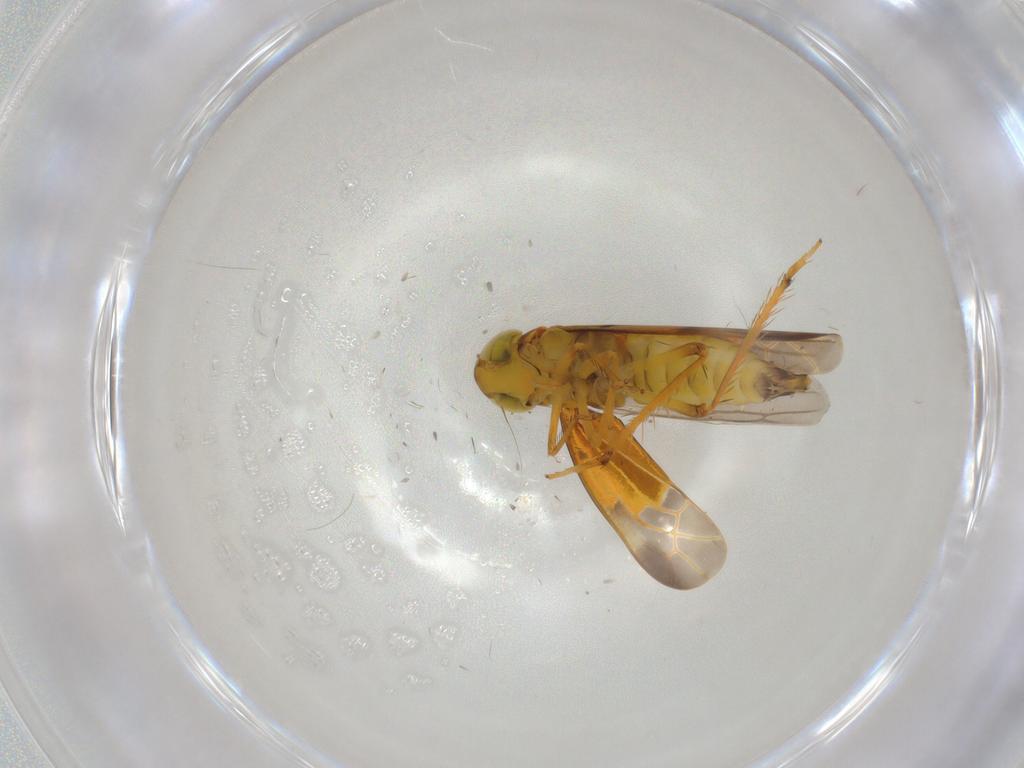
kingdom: Animalia
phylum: Arthropoda
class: Insecta
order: Hemiptera
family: Cicadellidae
